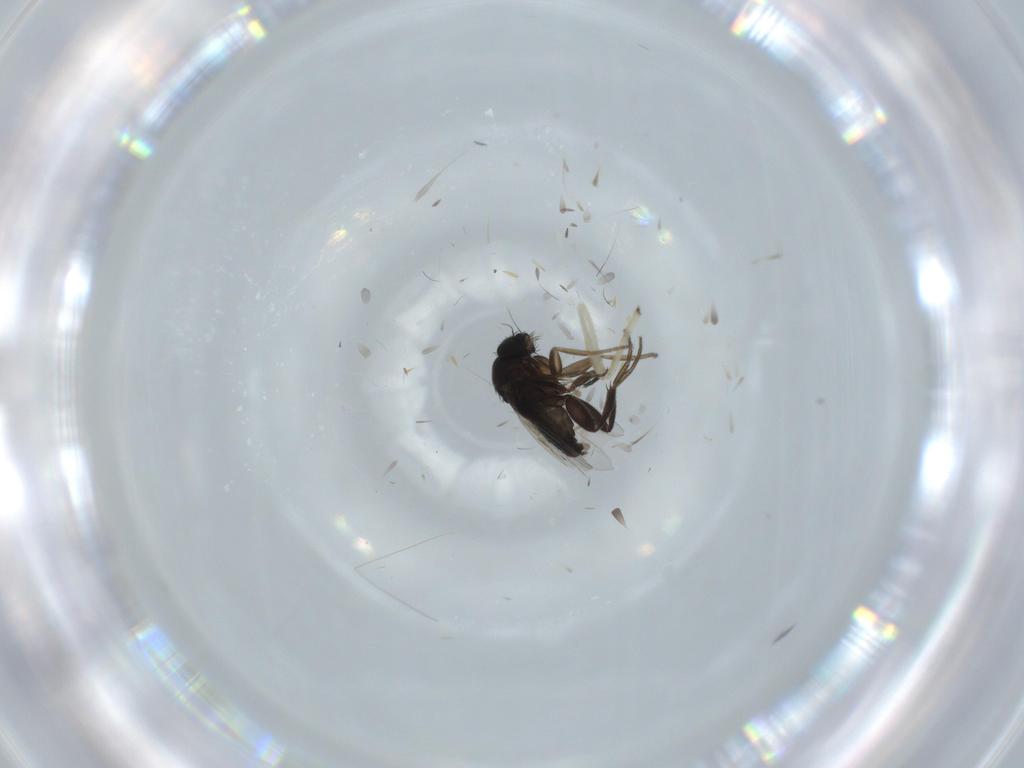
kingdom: Animalia
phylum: Arthropoda
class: Insecta
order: Diptera
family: Phoridae
